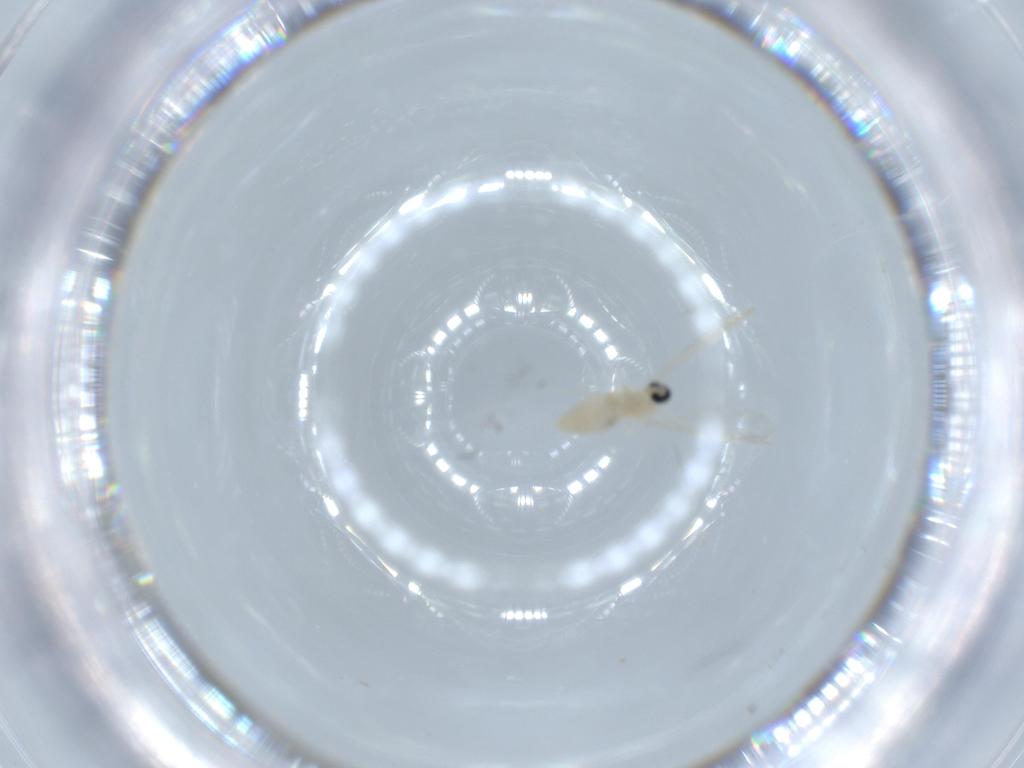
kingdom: Animalia
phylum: Arthropoda
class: Insecta
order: Diptera
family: Cecidomyiidae
